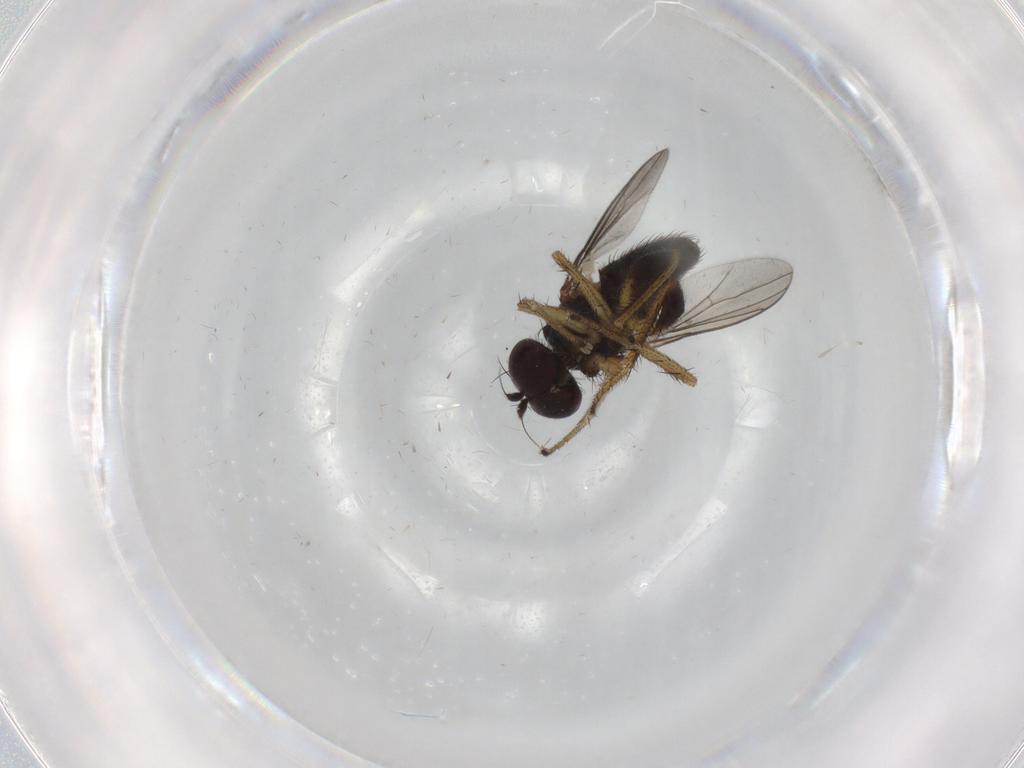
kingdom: Animalia
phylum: Arthropoda
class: Insecta
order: Diptera
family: Dolichopodidae
